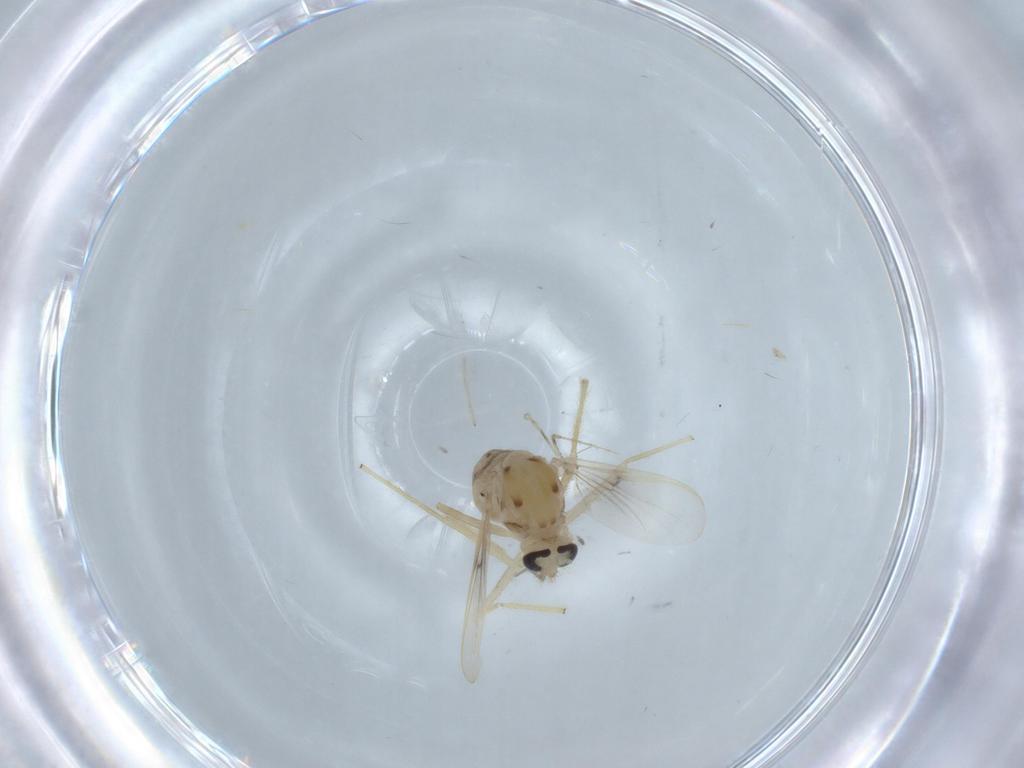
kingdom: Animalia
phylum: Arthropoda
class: Insecta
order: Diptera
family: Chironomidae
